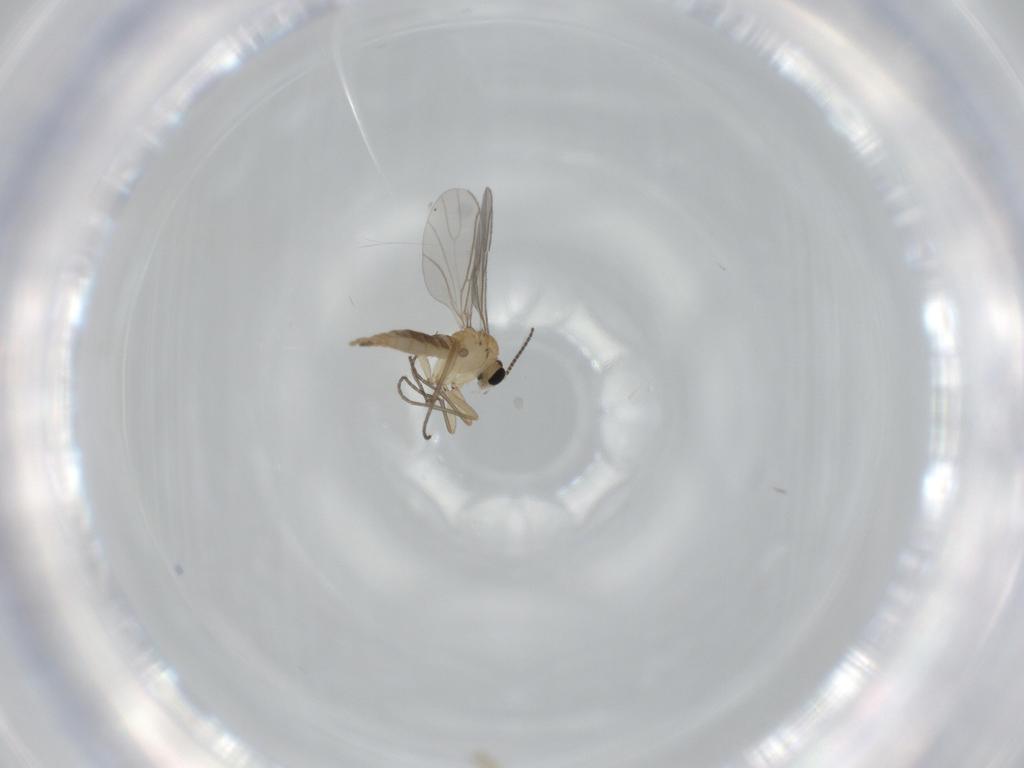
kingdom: Animalia
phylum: Arthropoda
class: Insecta
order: Diptera
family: Sciaridae
